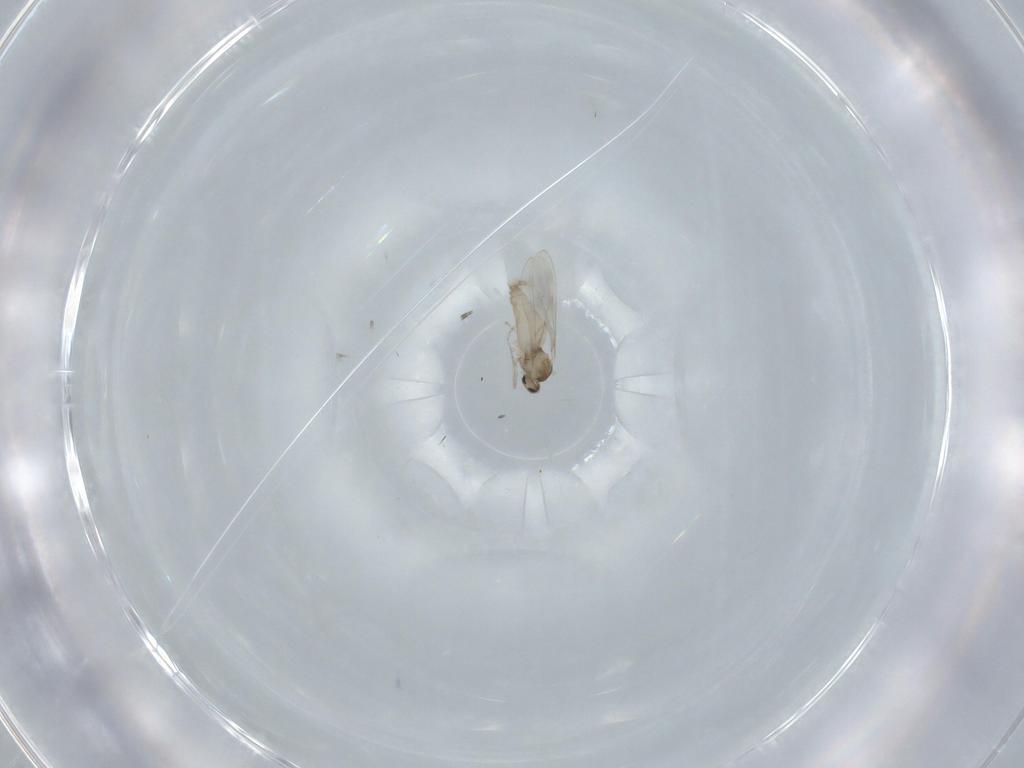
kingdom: Animalia
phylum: Arthropoda
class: Insecta
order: Diptera
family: Cecidomyiidae
